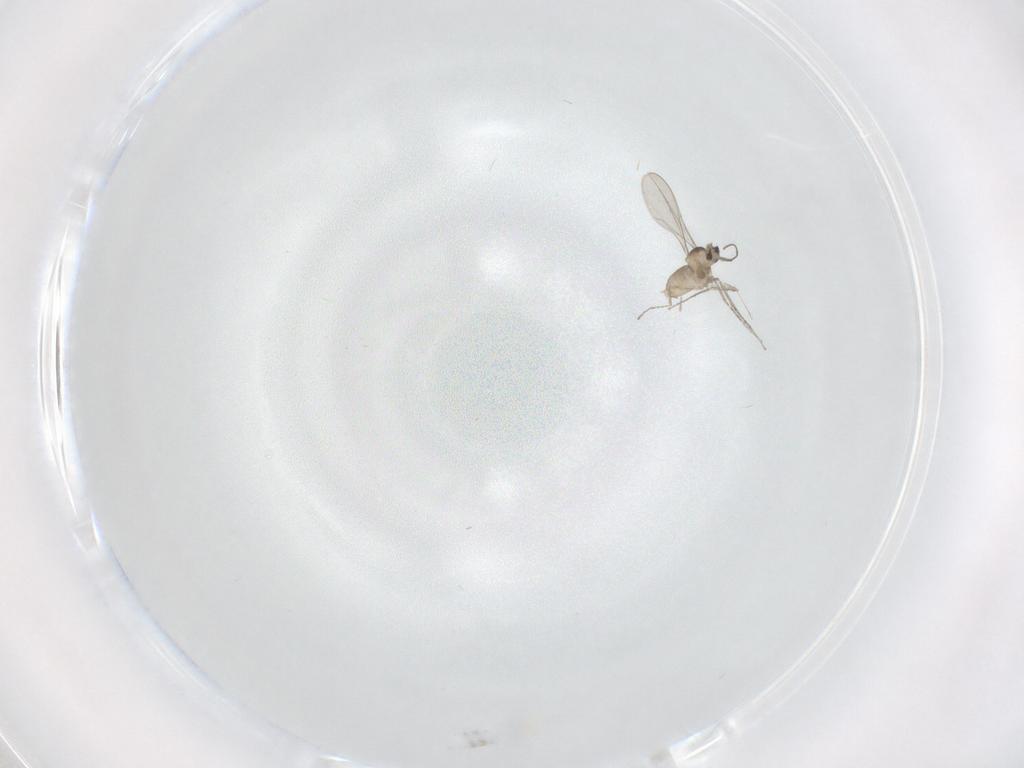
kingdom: Animalia
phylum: Arthropoda
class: Insecta
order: Diptera
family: Cecidomyiidae
